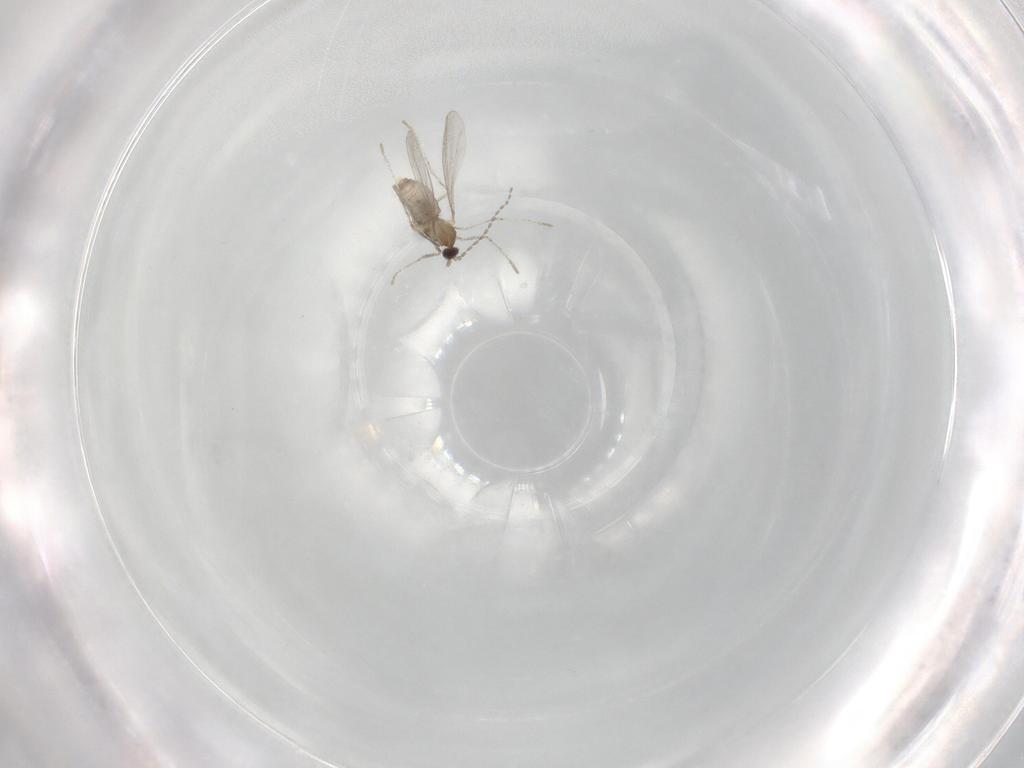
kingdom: Animalia
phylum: Arthropoda
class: Insecta
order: Diptera
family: Cecidomyiidae
